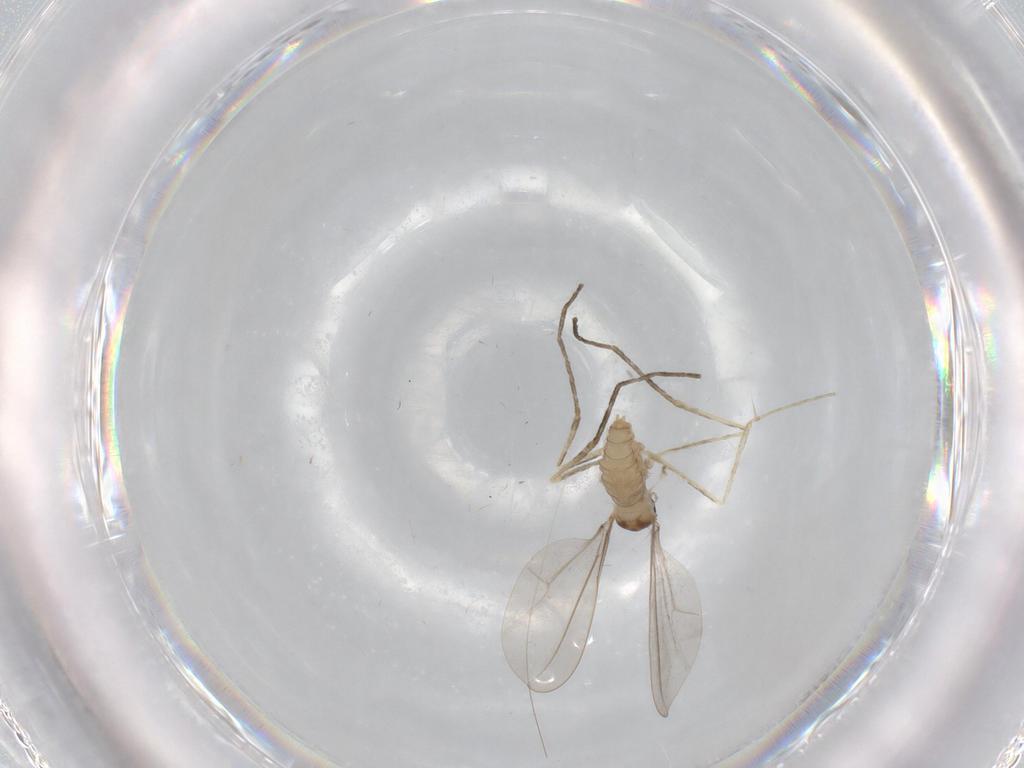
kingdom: Animalia
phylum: Arthropoda
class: Insecta
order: Diptera
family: Cecidomyiidae
